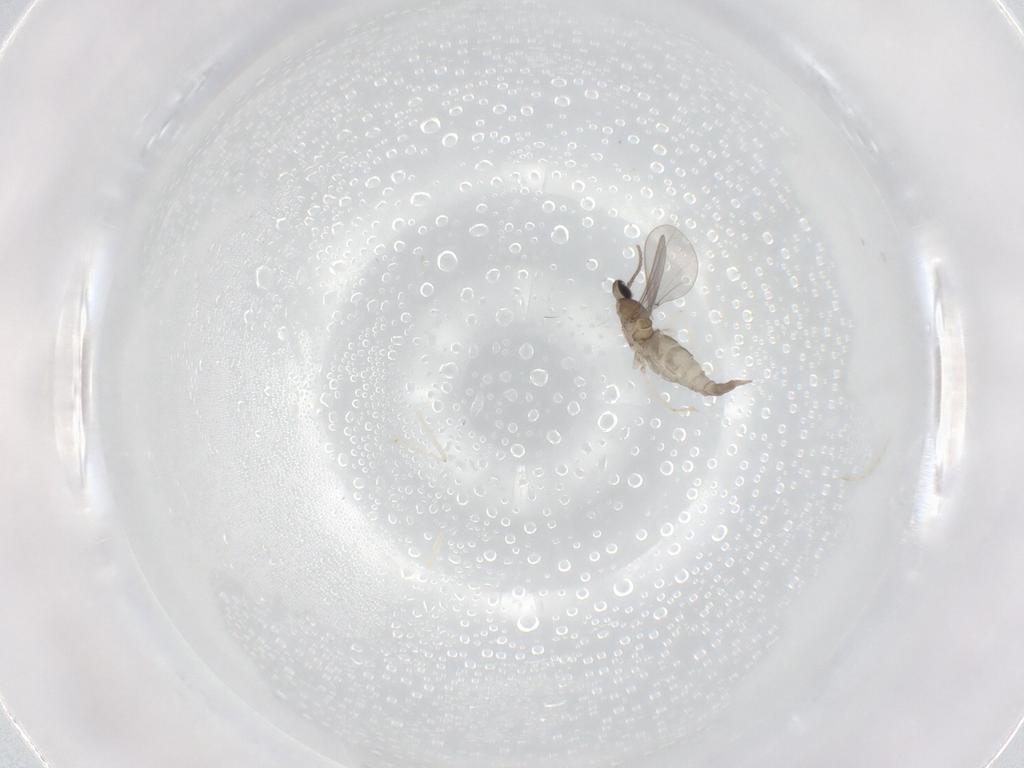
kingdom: Animalia
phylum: Arthropoda
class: Insecta
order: Diptera
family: Cecidomyiidae
